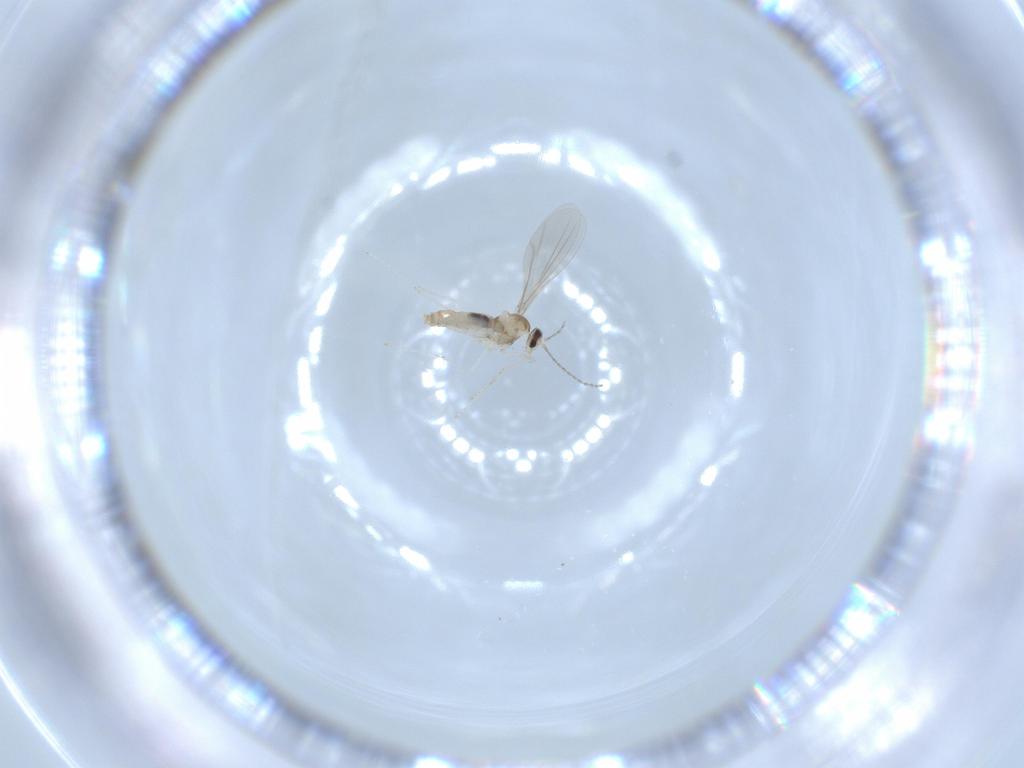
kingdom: Animalia
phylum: Arthropoda
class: Insecta
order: Diptera
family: Cecidomyiidae
